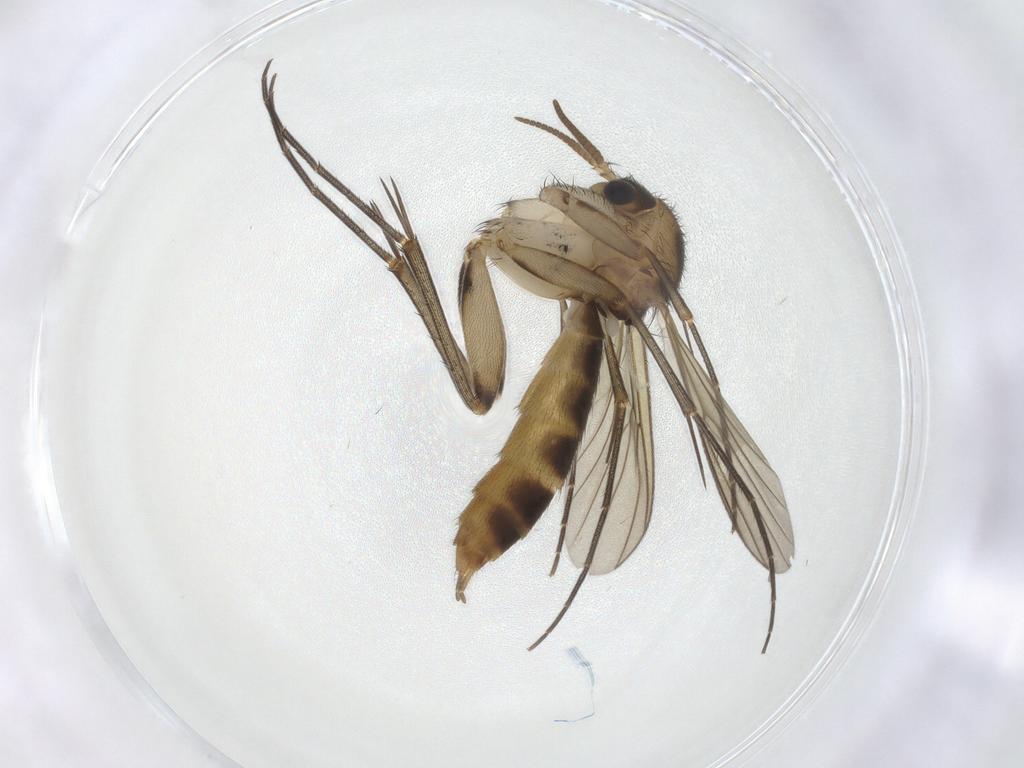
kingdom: Animalia
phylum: Arthropoda
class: Insecta
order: Diptera
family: Mycetophilidae
